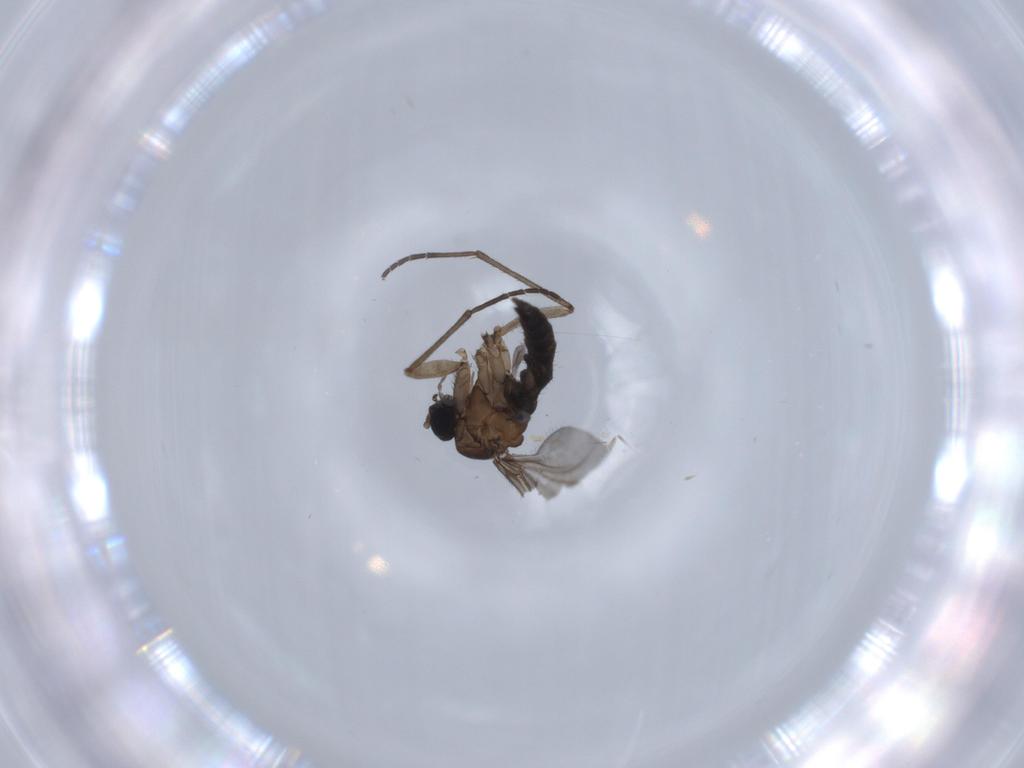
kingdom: Animalia
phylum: Arthropoda
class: Insecta
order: Diptera
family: Sciaridae
